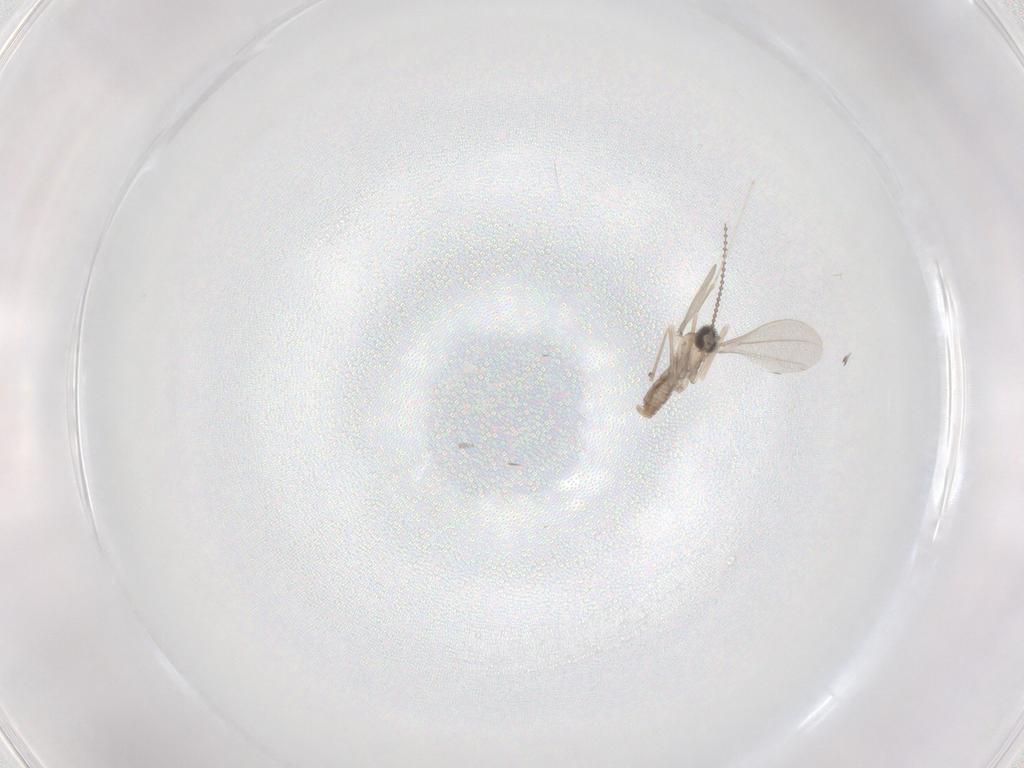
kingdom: Animalia
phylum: Arthropoda
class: Insecta
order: Diptera
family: Cecidomyiidae
